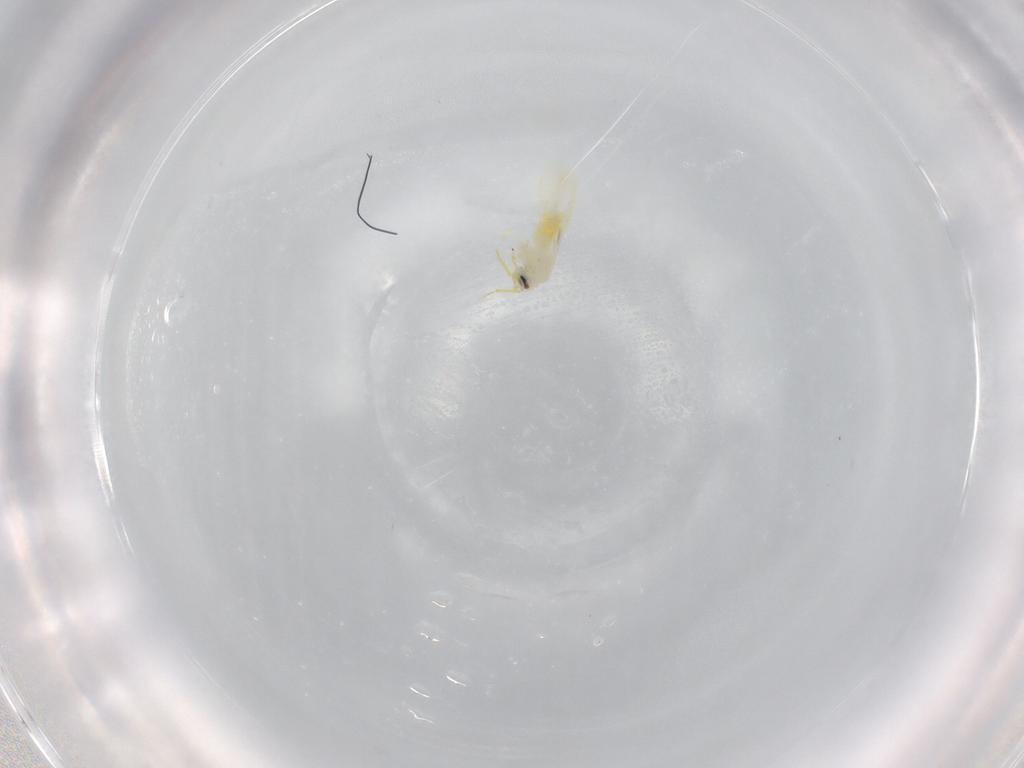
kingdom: Animalia
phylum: Arthropoda
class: Insecta
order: Hemiptera
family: Aleyrodidae
